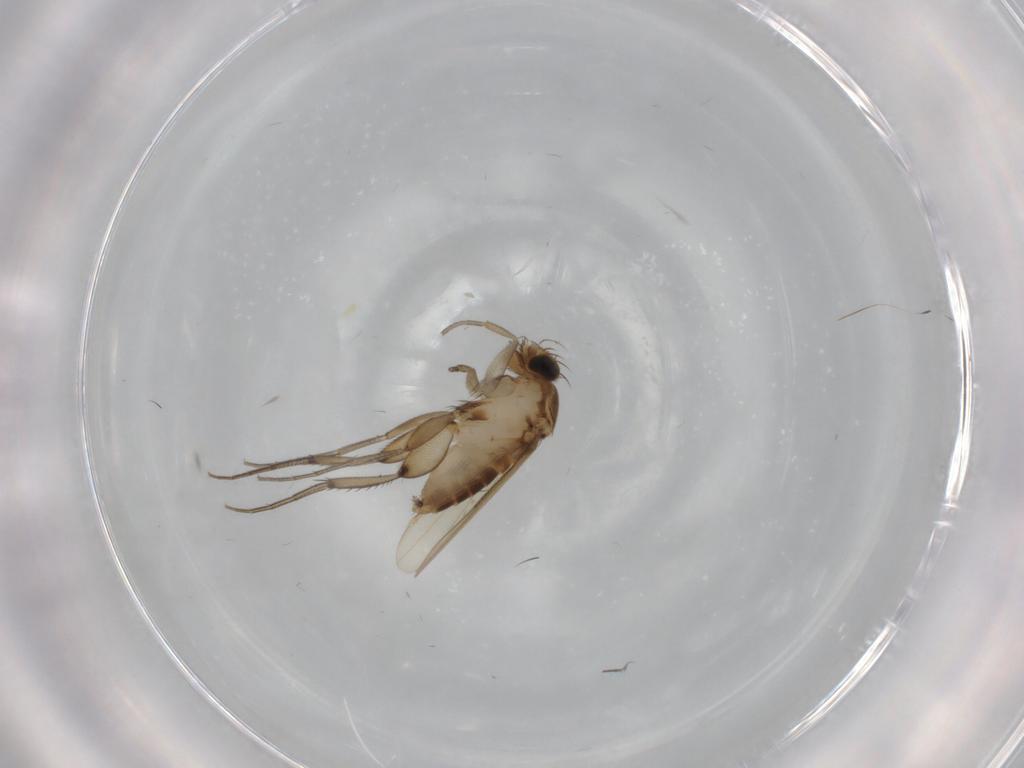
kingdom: Animalia
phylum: Arthropoda
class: Insecta
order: Diptera
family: Phoridae
